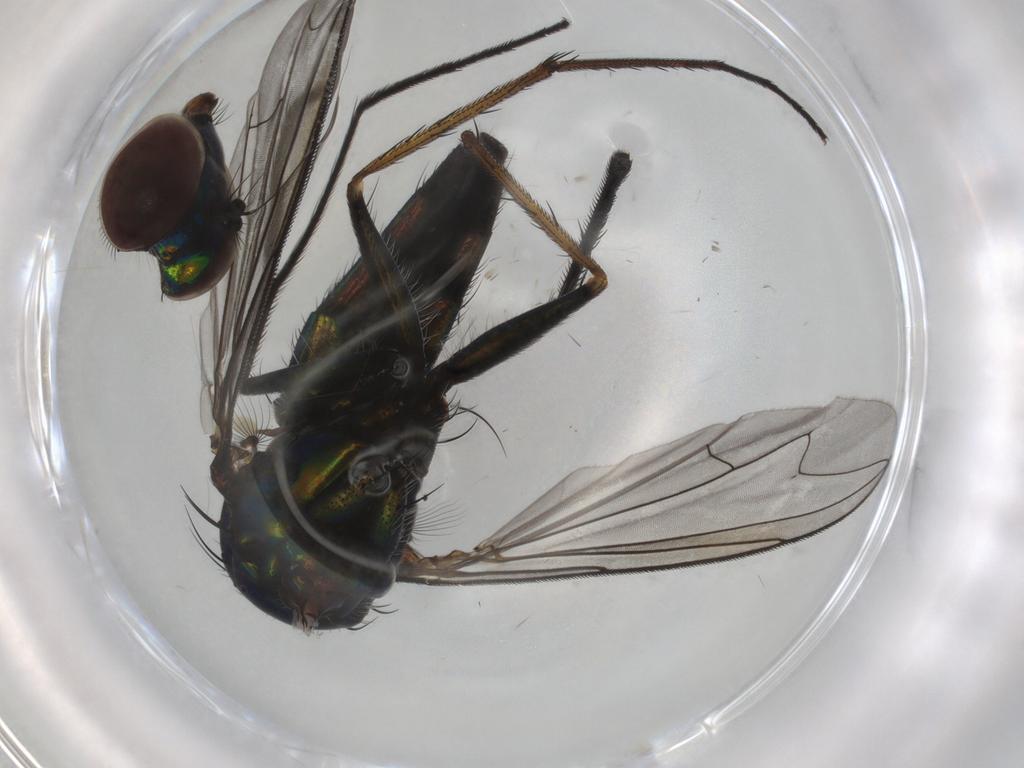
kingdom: Animalia
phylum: Arthropoda
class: Insecta
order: Diptera
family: Dolichopodidae
